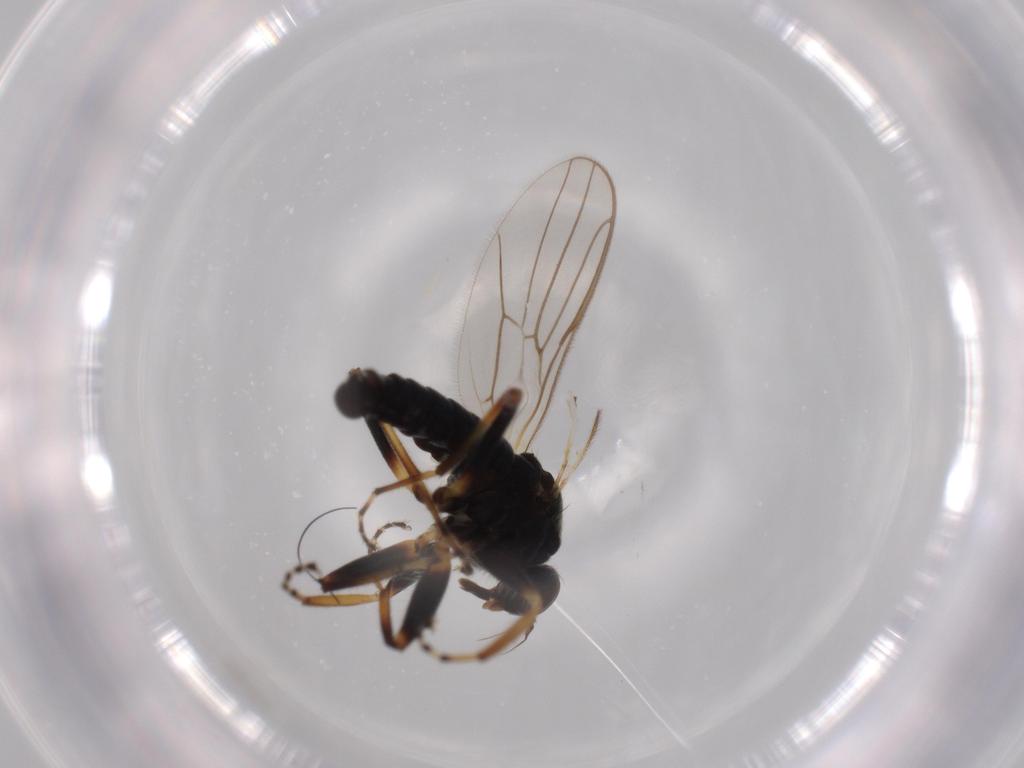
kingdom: Animalia
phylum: Arthropoda
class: Insecta
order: Diptera
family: Hybotidae
